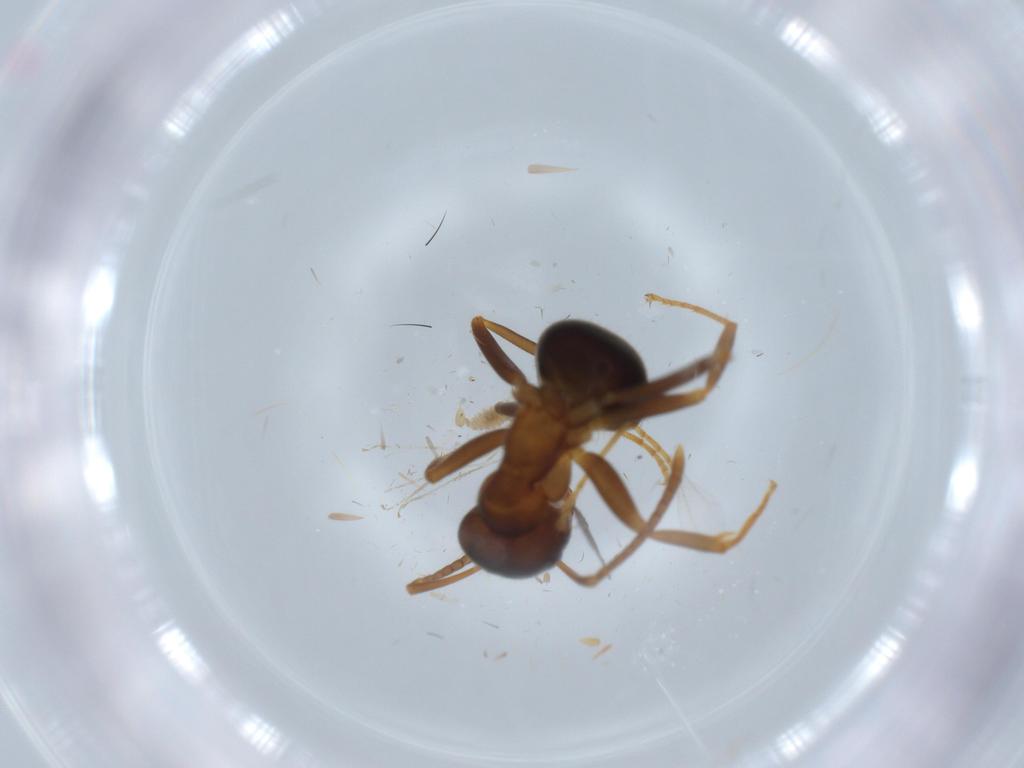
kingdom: Animalia
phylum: Arthropoda
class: Insecta
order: Hymenoptera
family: Formicidae
